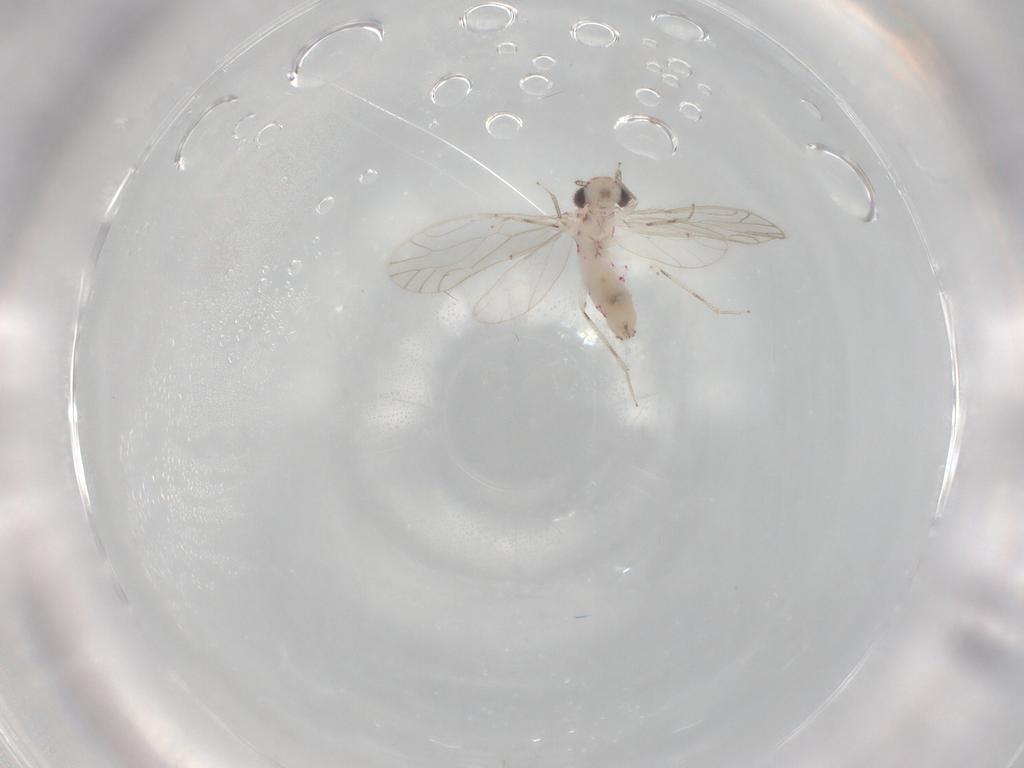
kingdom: Animalia
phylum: Arthropoda
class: Insecta
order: Psocodea
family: Caeciliusidae
